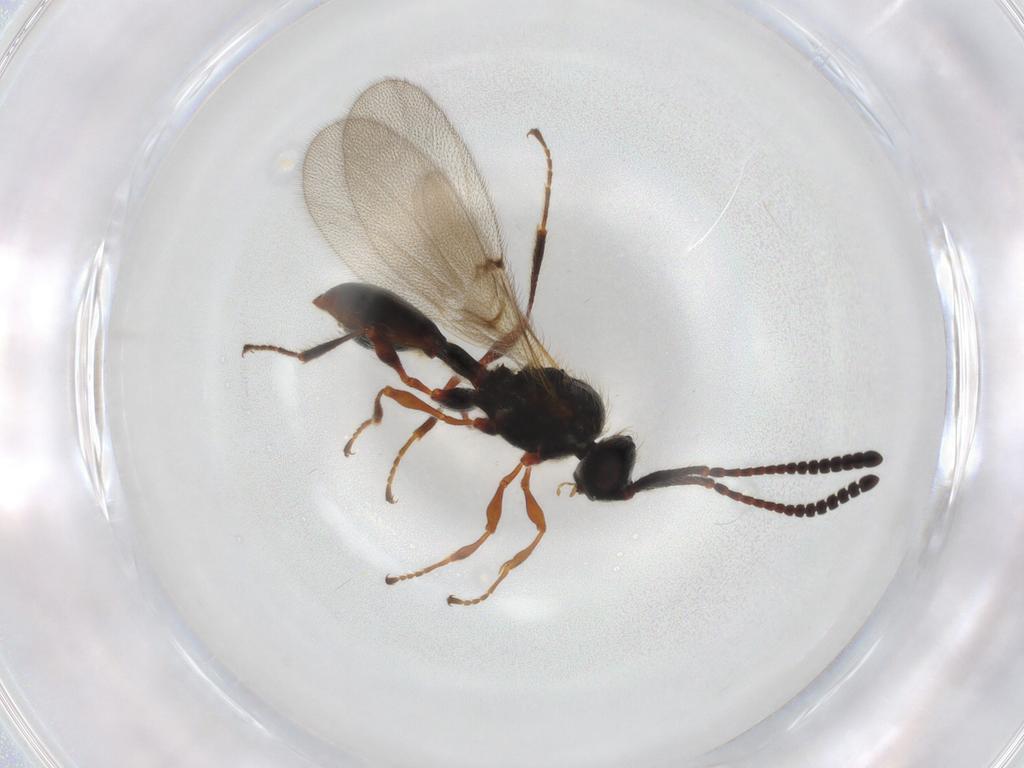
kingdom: Animalia
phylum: Arthropoda
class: Insecta
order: Hymenoptera
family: Diapriidae
